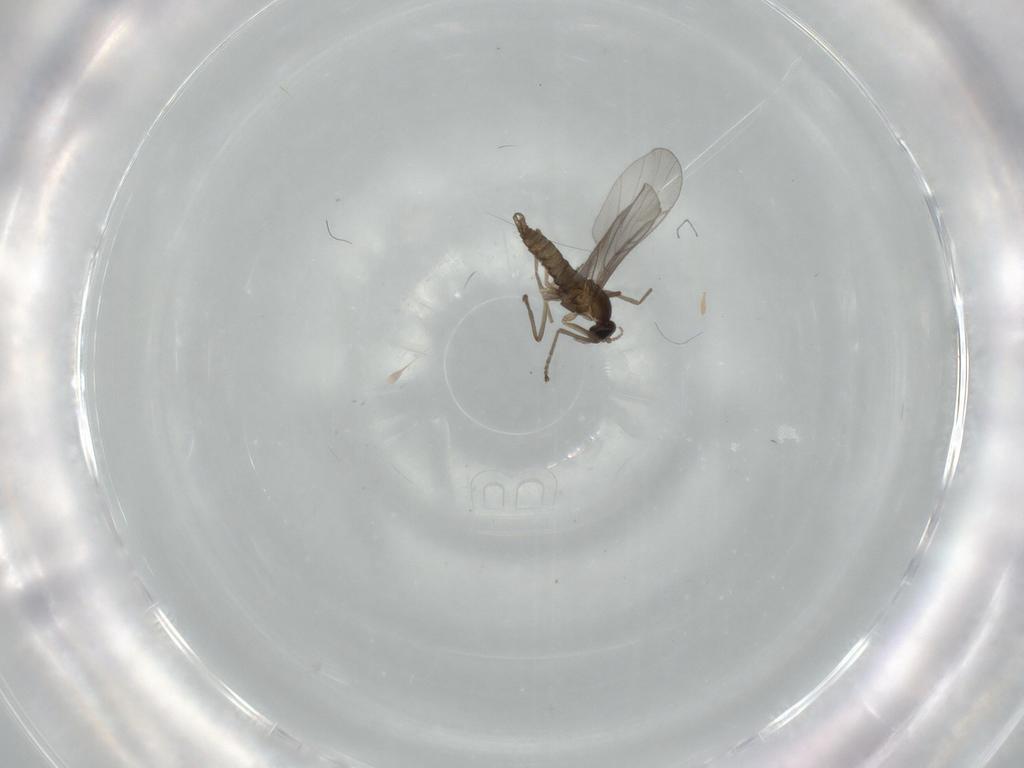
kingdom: Animalia
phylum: Arthropoda
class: Insecta
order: Diptera
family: Cecidomyiidae
